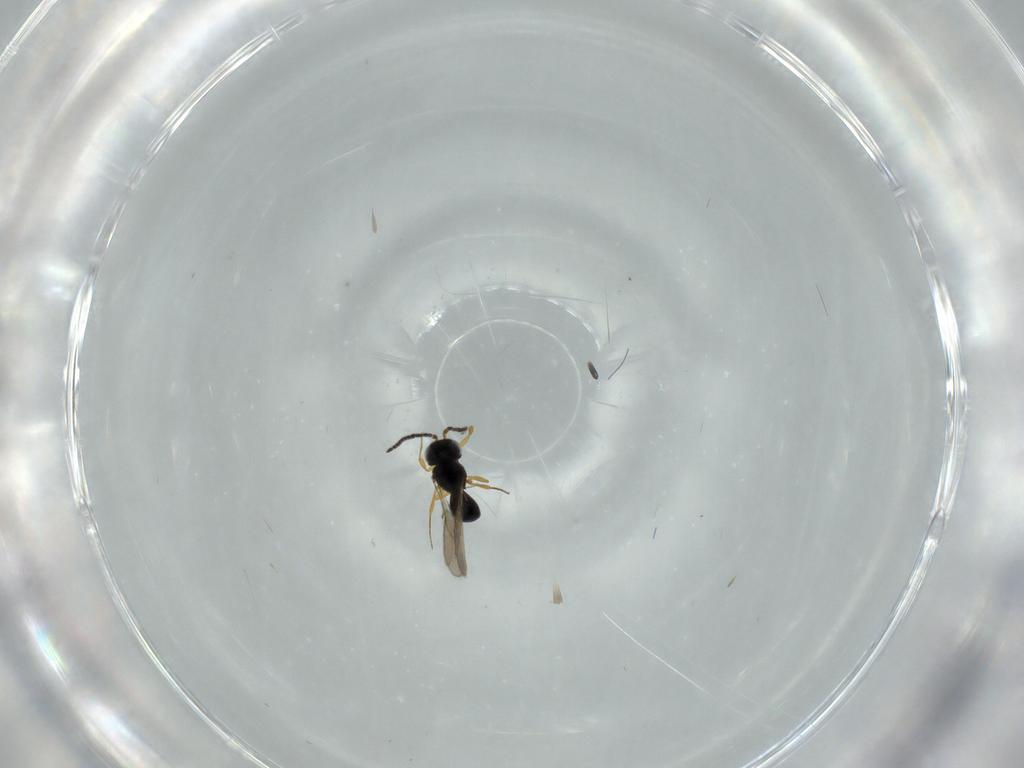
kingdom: Animalia
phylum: Arthropoda
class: Insecta
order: Hymenoptera
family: Scelionidae
